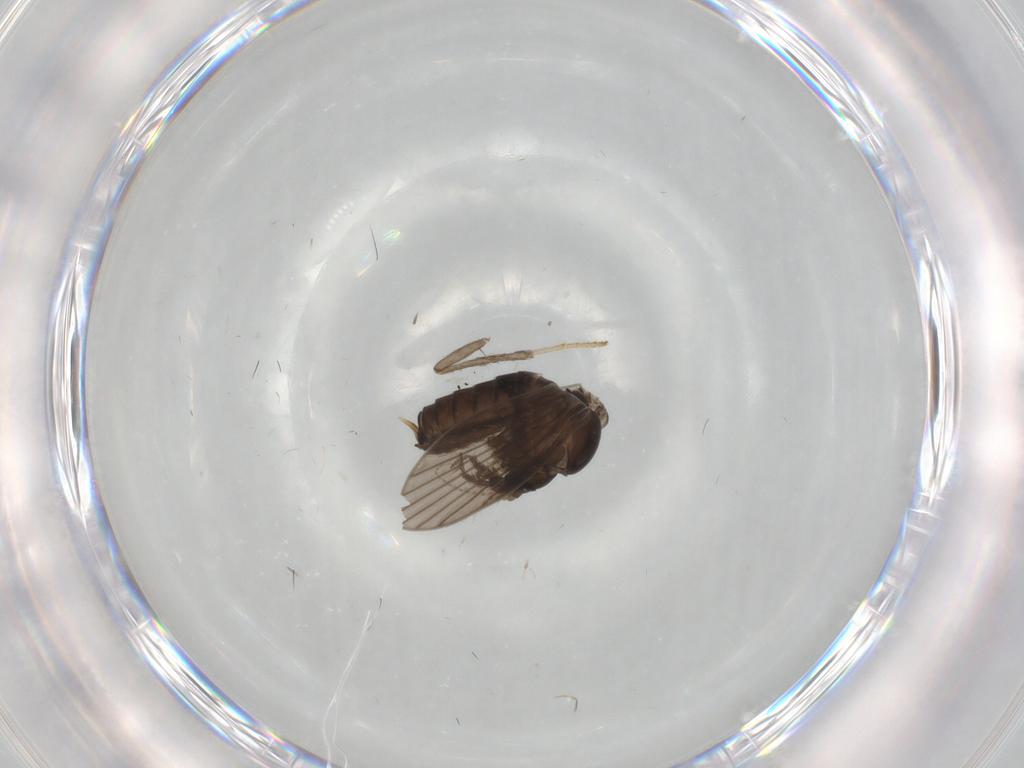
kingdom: Animalia
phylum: Arthropoda
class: Insecta
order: Diptera
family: Psychodidae
